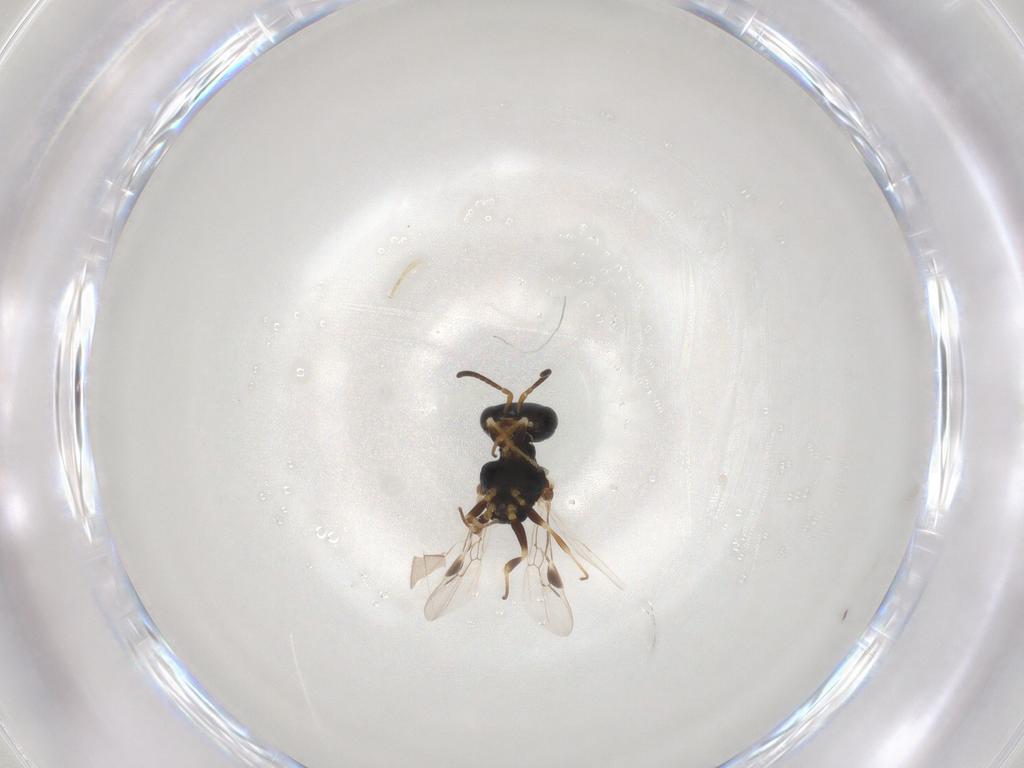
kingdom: Animalia
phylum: Arthropoda
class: Insecta
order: Hymenoptera
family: Pemphredonidae
